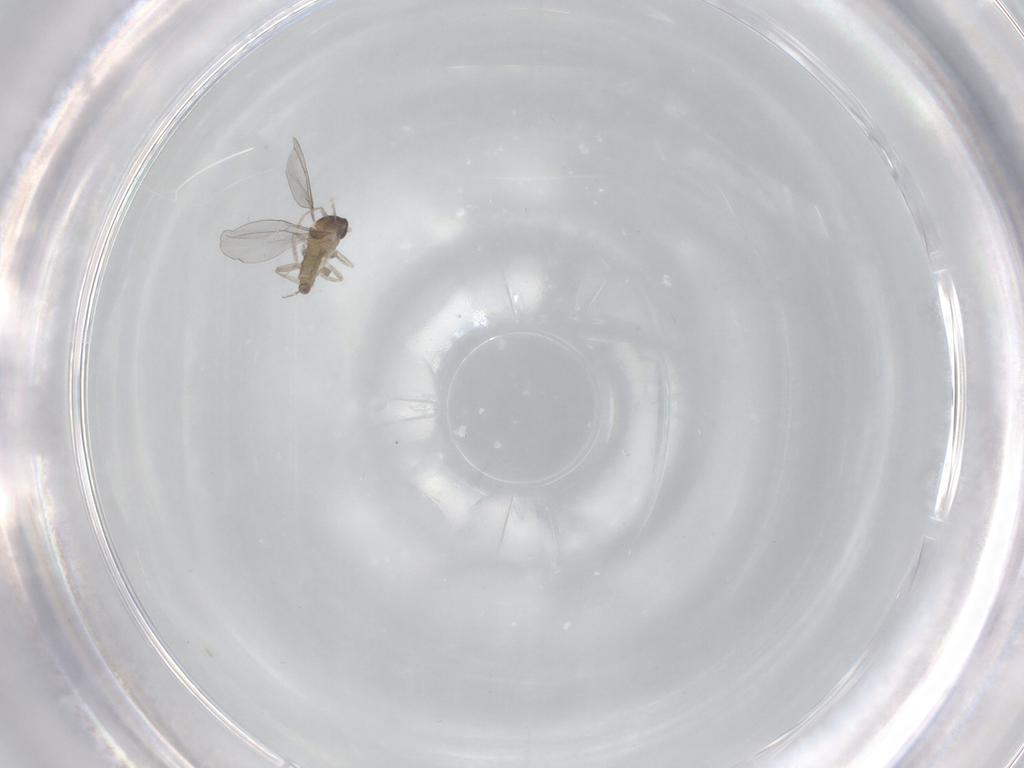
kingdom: Animalia
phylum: Arthropoda
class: Insecta
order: Diptera
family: Cecidomyiidae
